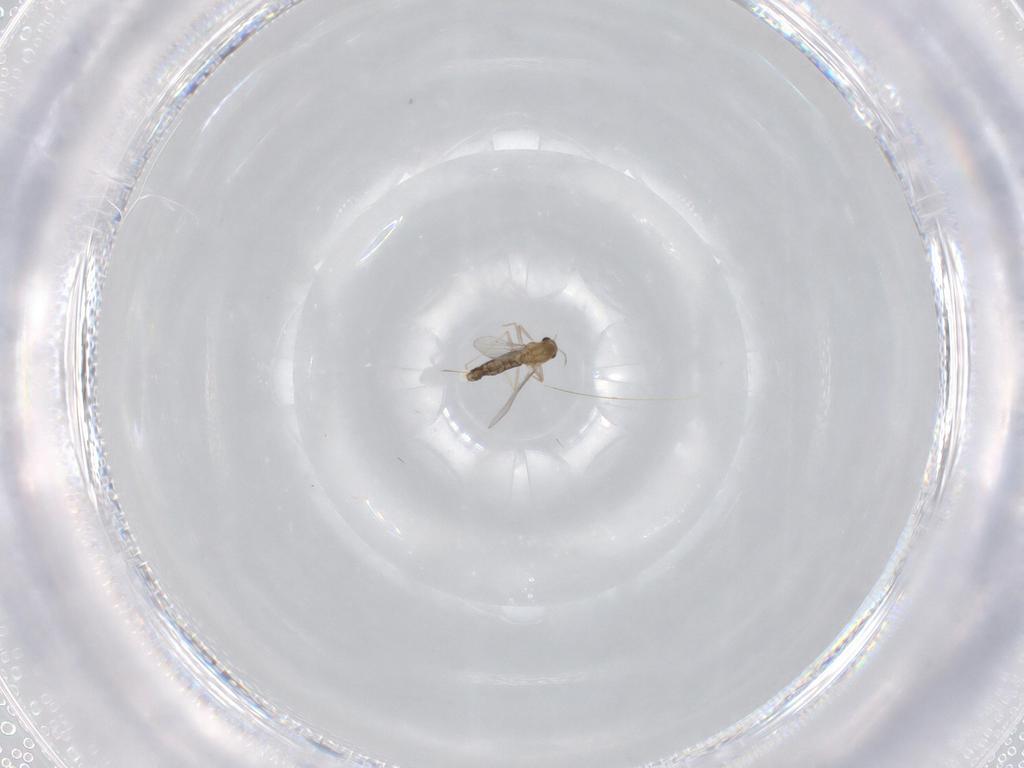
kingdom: Animalia
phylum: Arthropoda
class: Insecta
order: Diptera
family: Chironomidae
